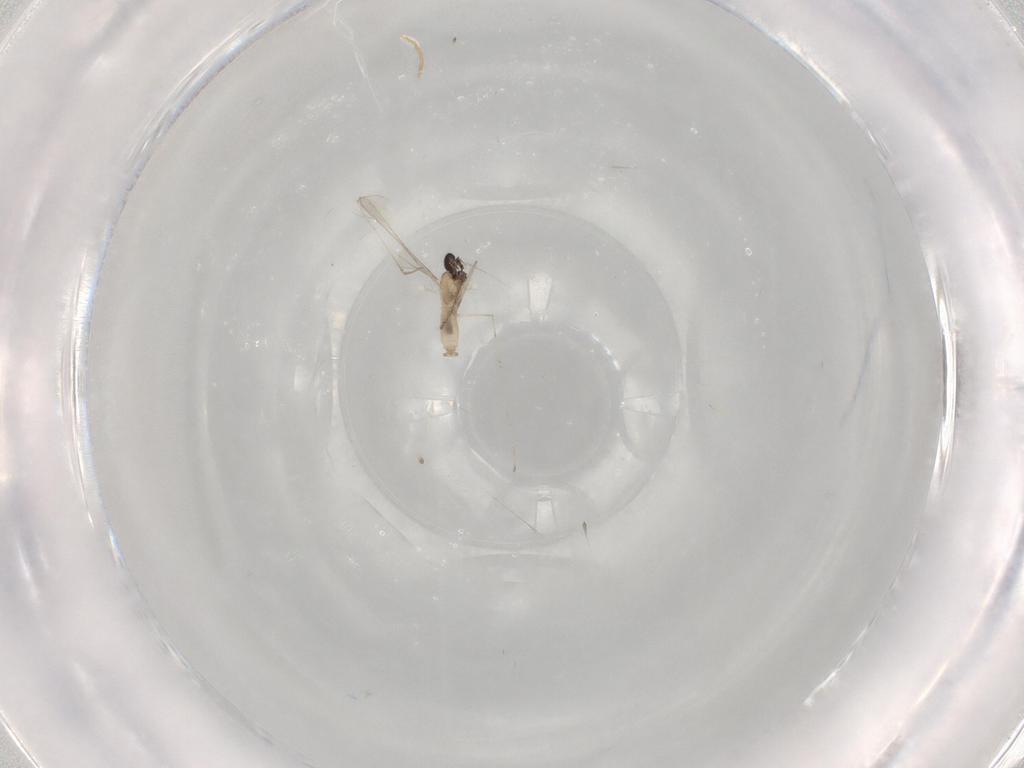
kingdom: Animalia
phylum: Arthropoda
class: Insecta
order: Diptera
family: Cecidomyiidae
